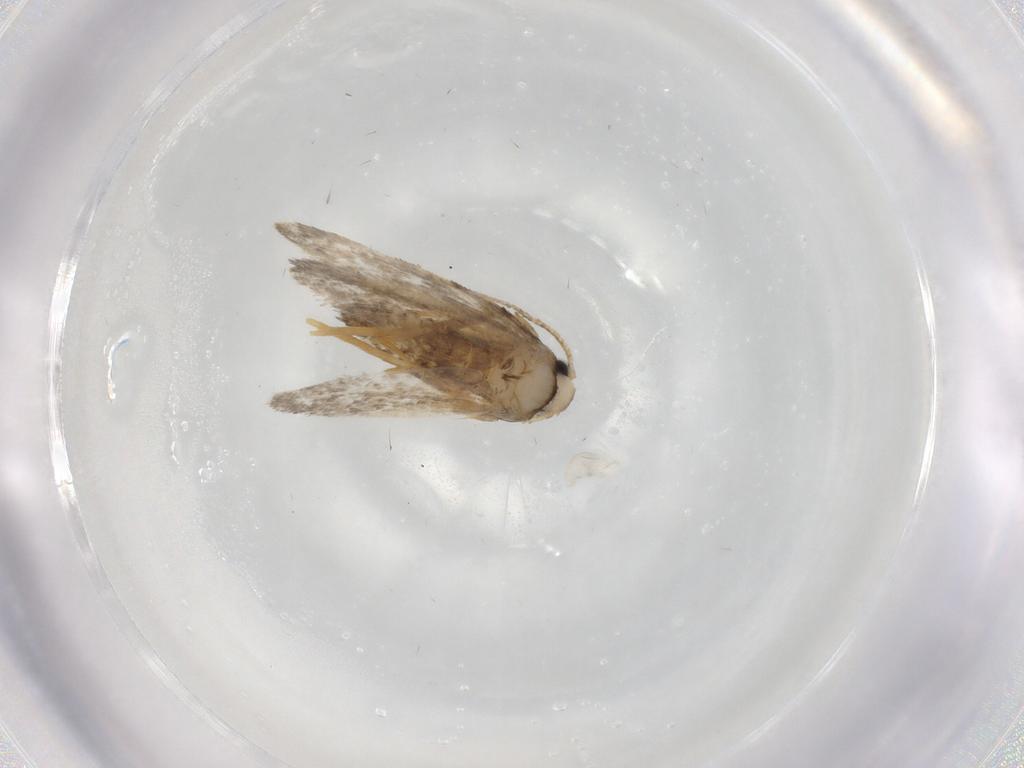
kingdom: Animalia
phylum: Arthropoda
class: Insecta
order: Lepidoptera
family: Psychidae
